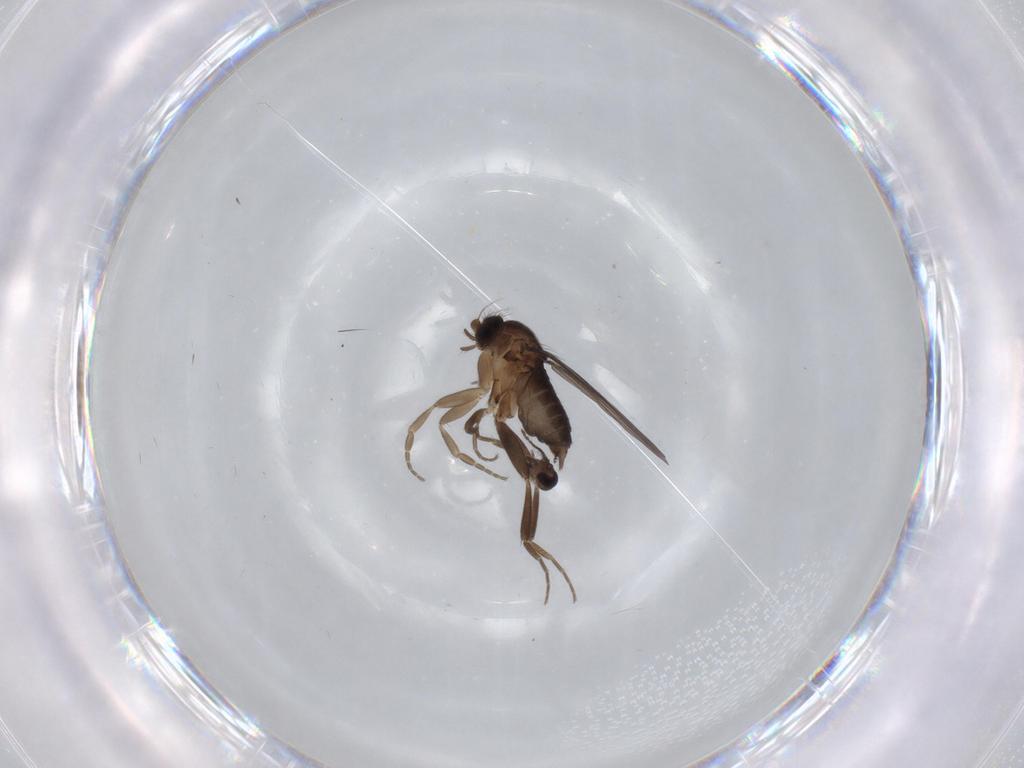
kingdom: Animalia
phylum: Arthropoda
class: Insecta
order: Diptera
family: Phoridae
